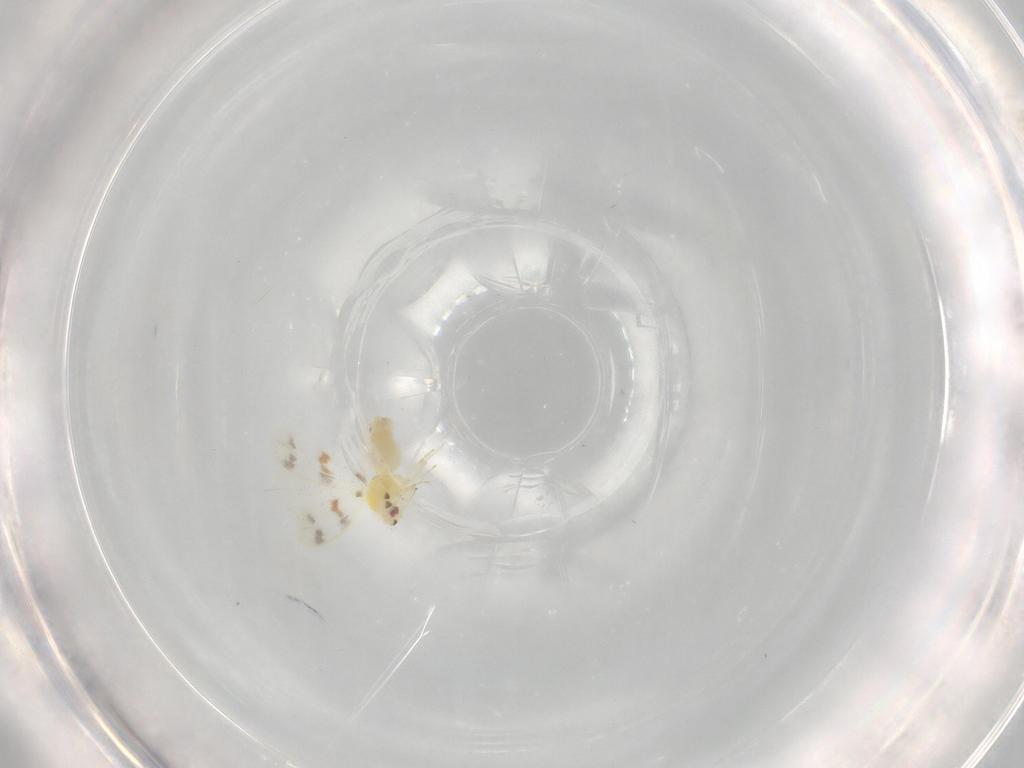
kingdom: Animalia
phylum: Arthropoda
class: Insecta
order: Hemiptera
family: Aleyrodidae
